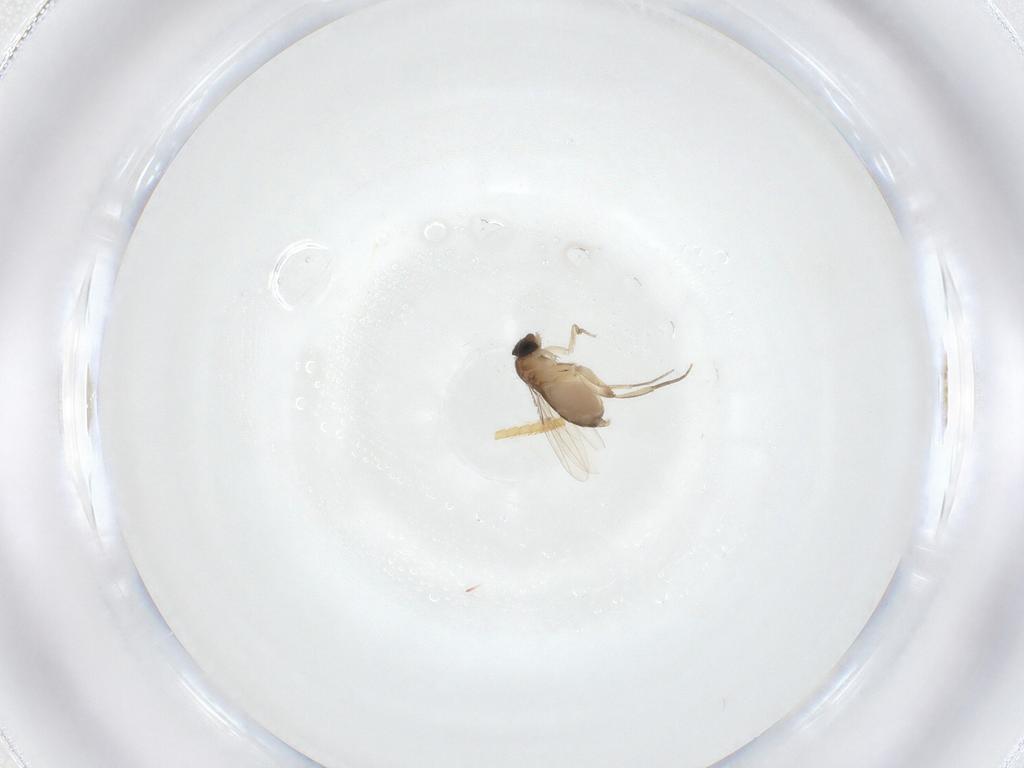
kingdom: Animalia
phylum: Arthropoda
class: Insecta
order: Diptera
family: Phoridae
